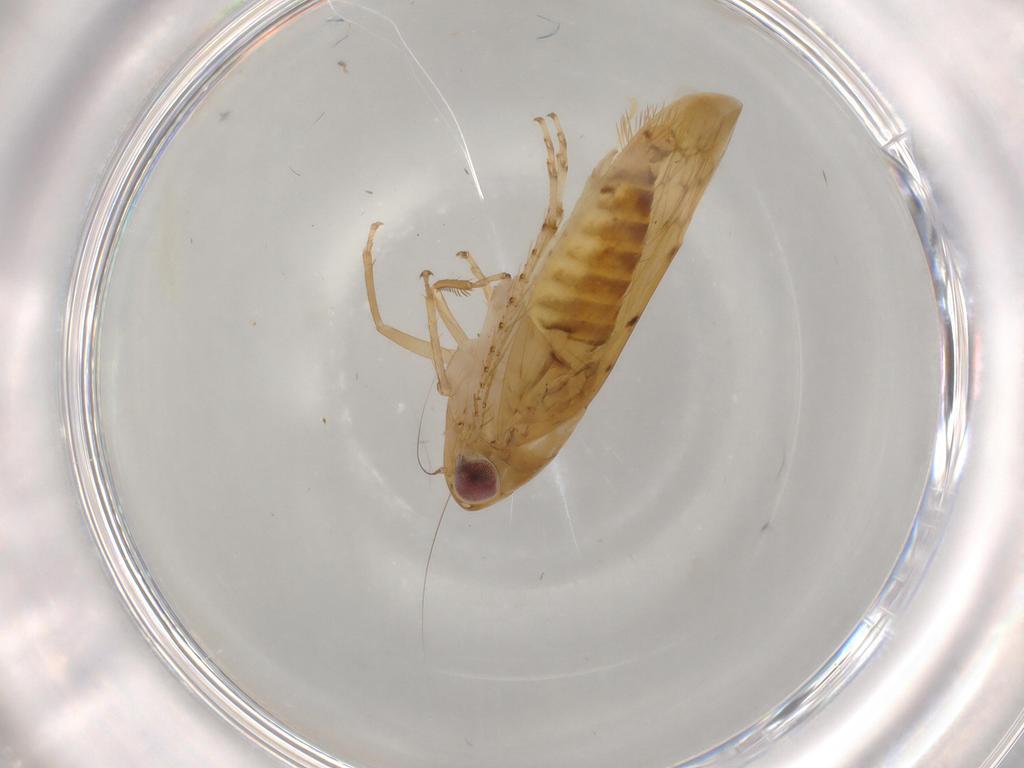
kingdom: Animalia
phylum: Arthropoda
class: Insecta
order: Hemiptera
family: Cicadellidae
